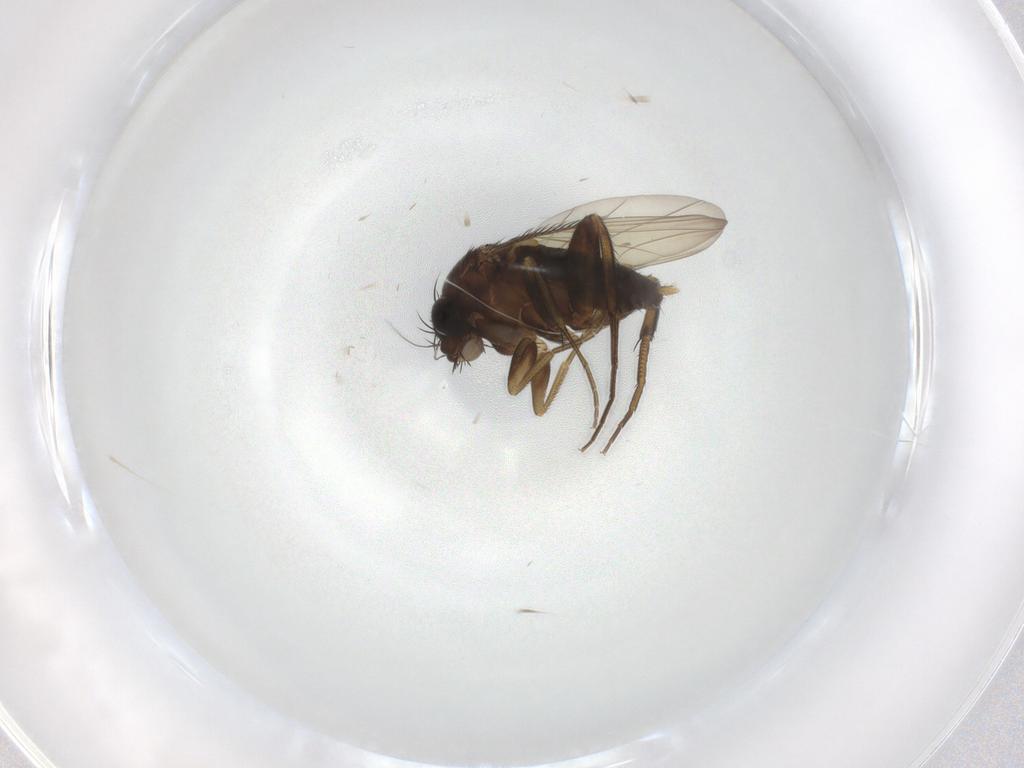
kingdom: Animalia
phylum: Arthropoda
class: Insecta
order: Diptera
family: Phoridae
